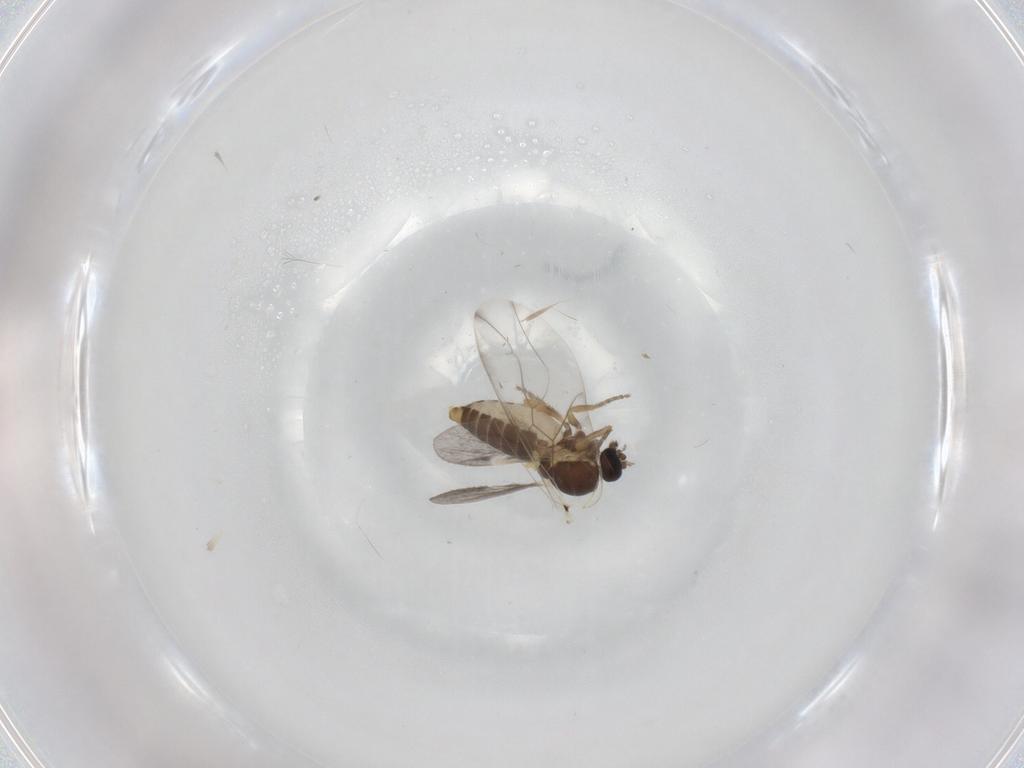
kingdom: Animalia
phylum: Arthropoda
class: Insecta
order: Diptera
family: Ceratopogonidae
